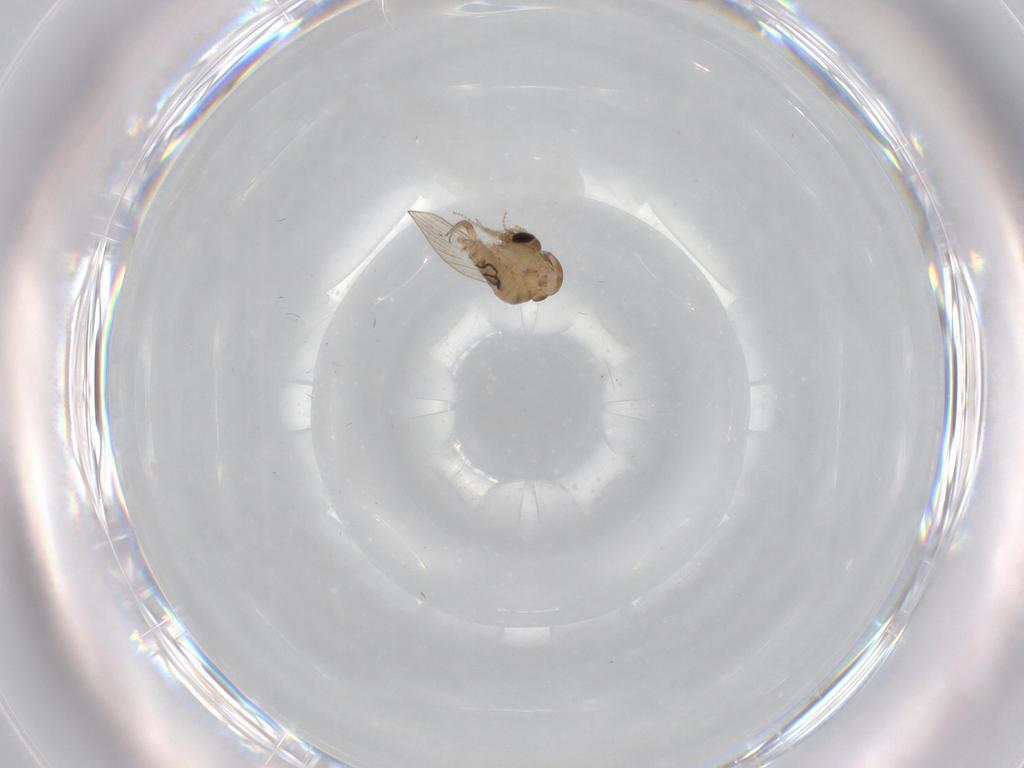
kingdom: Animalia
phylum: Arthropoda
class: Insecta
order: Diptera
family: Psychodidae
